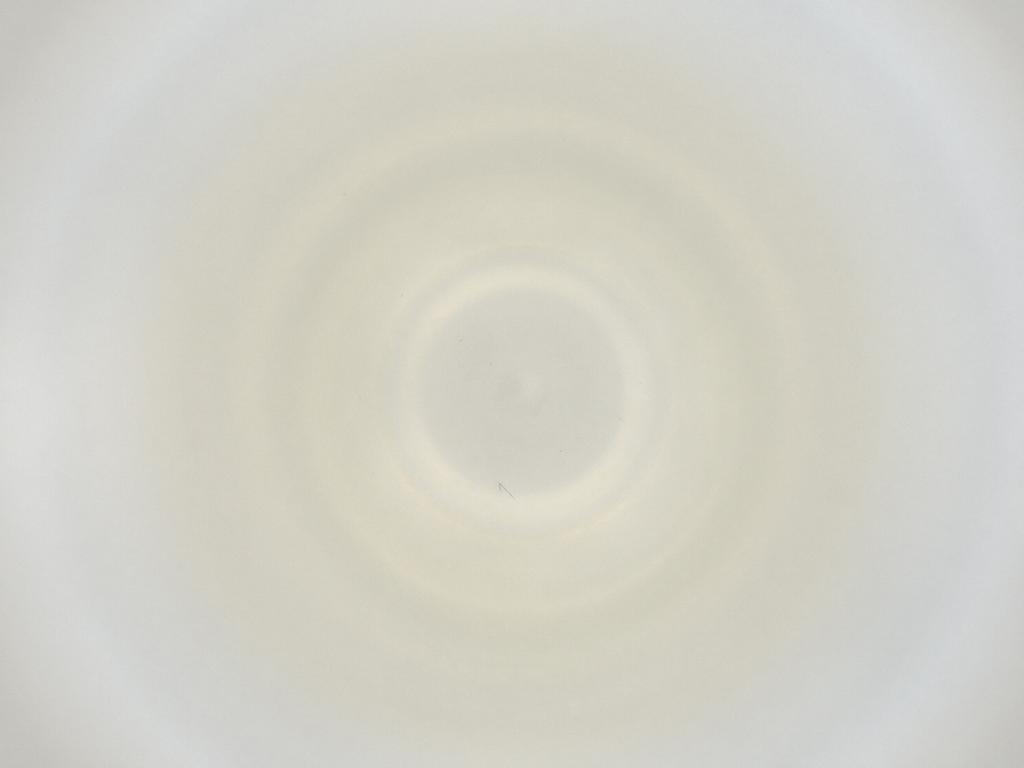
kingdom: Animalia
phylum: Arthropoda
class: Insecta
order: Diptera
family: Cecidomyiidae
